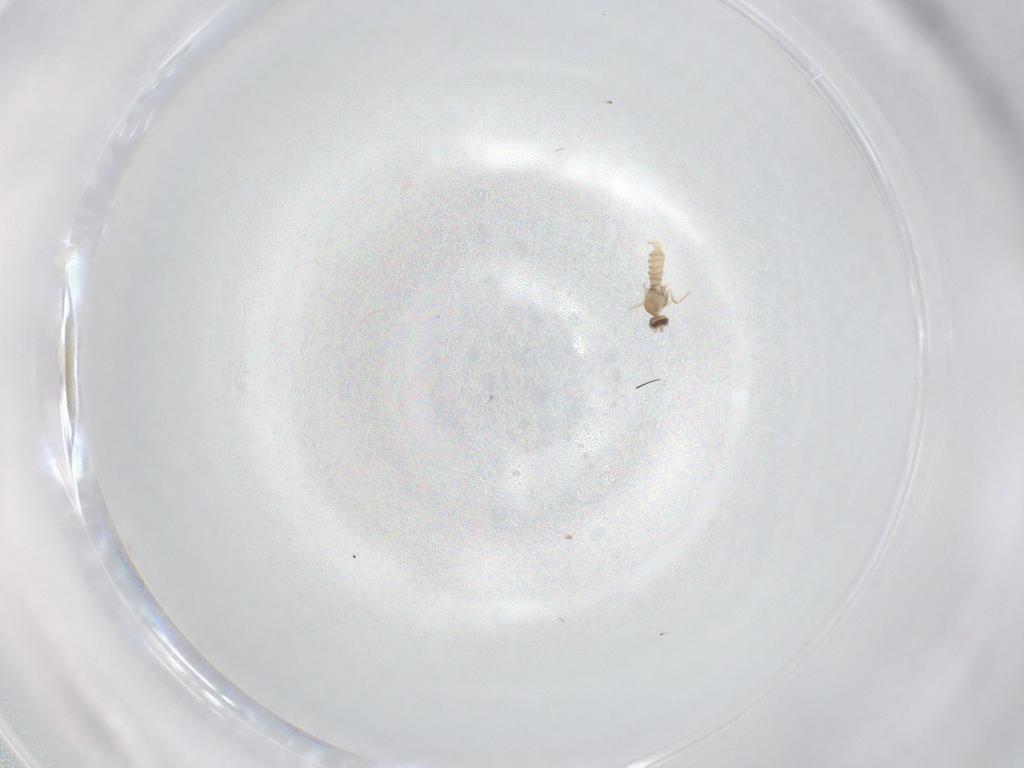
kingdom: Animalia
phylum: Arthropoda
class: Insecta
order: Diptera
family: Cecidomyiidae
